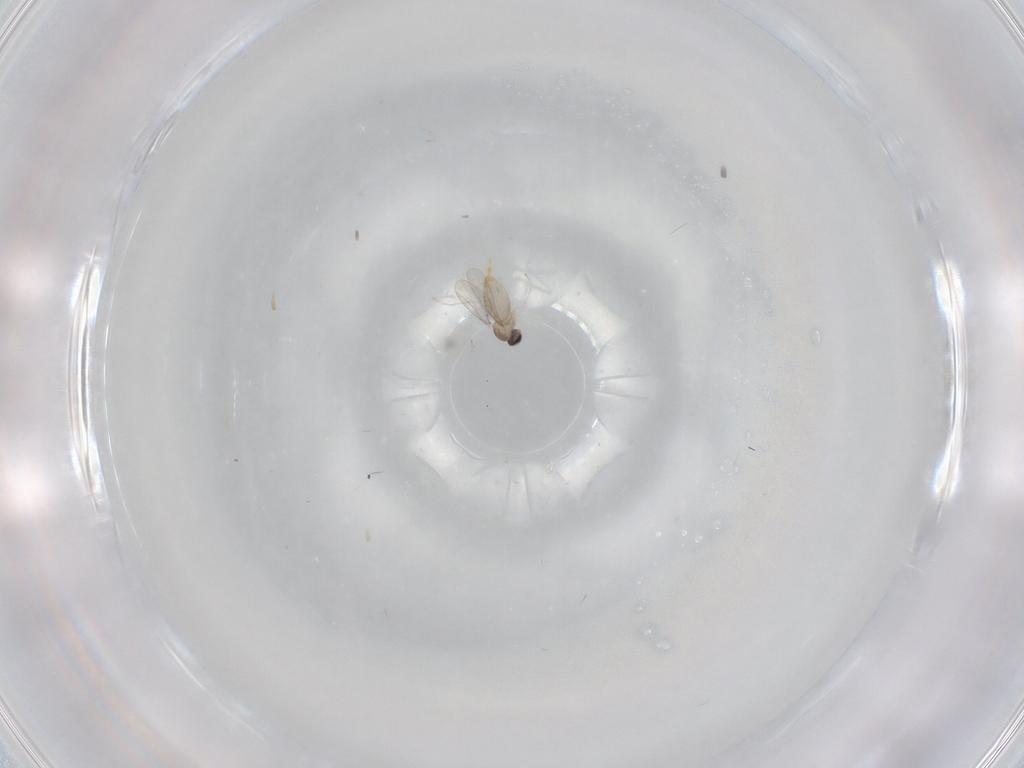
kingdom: Animalia
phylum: Arthropoda
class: Insecta
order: Diptera
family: Cecidomyiidae
